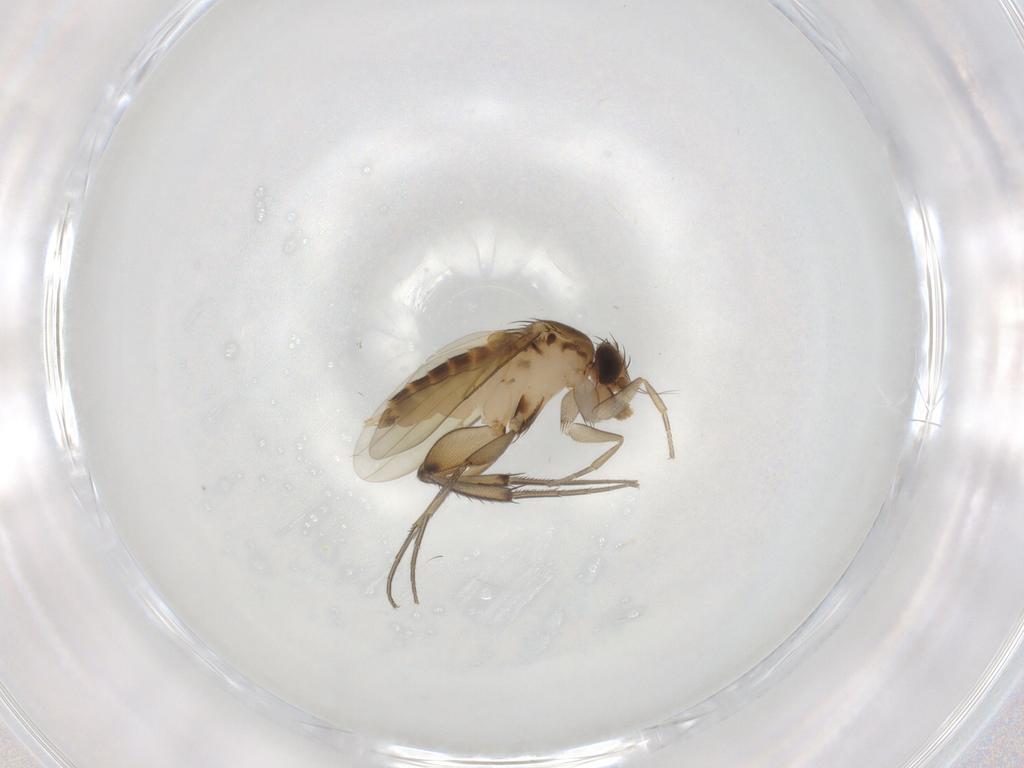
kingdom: Animalia
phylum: Arthropoda
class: Insecta
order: Diptera
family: Phoridae
